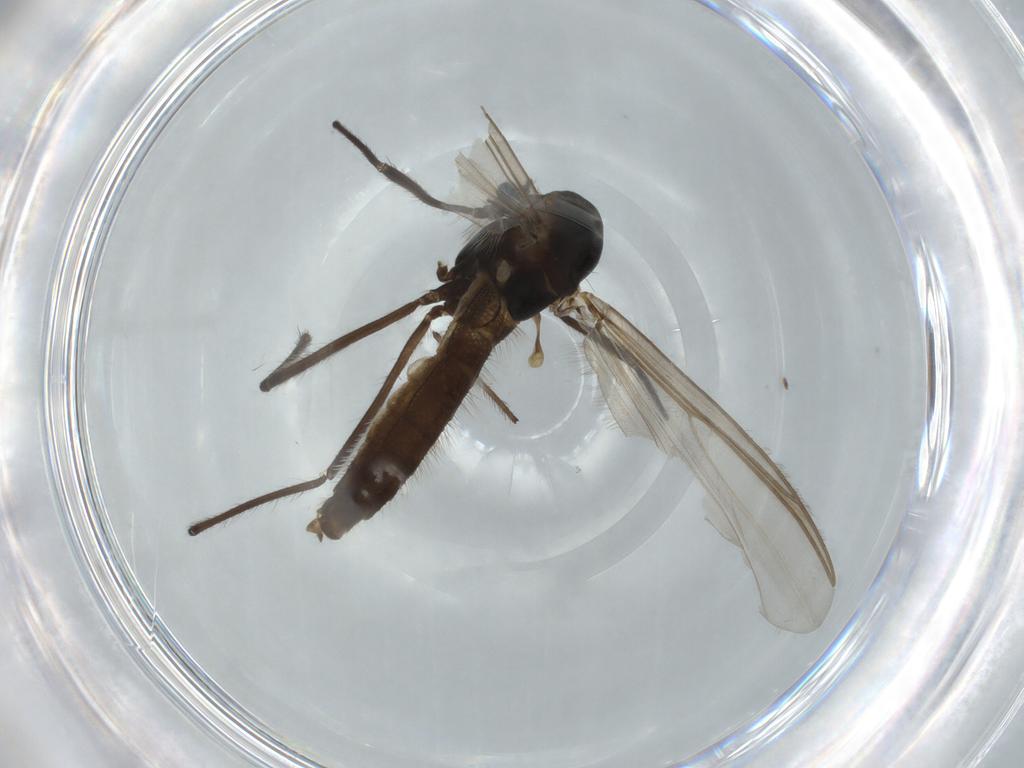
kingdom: Animalia
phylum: Arthropoda
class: Insecta
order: Diptera
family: Chironomidae
